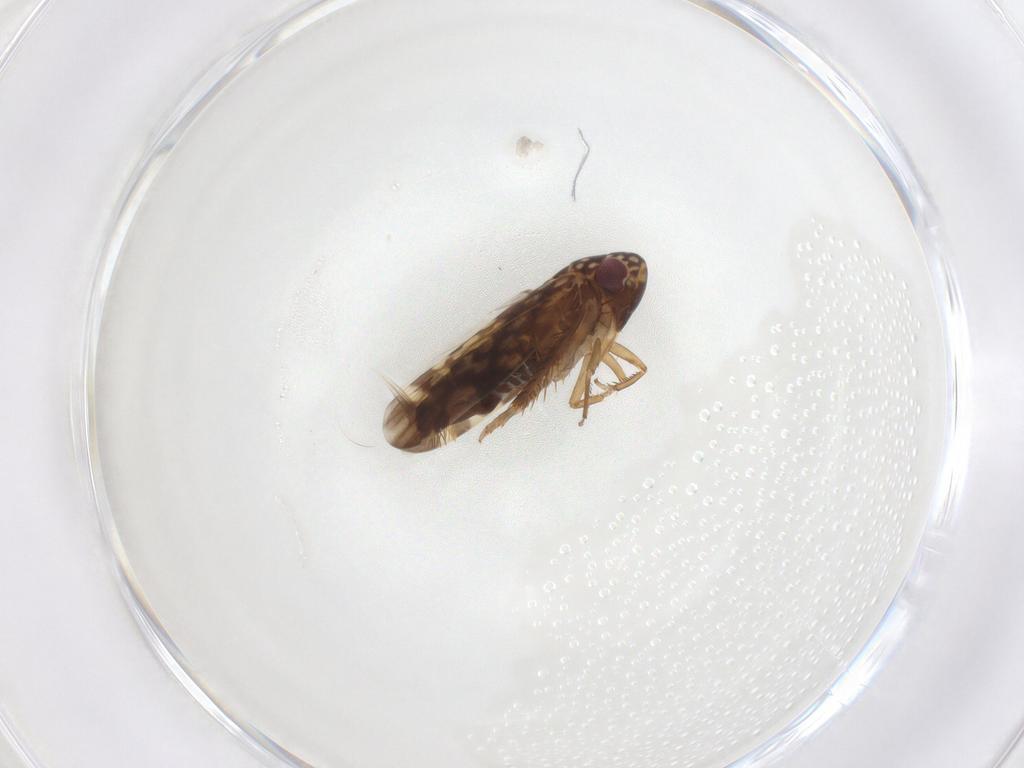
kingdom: Animalia
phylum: Arthropoda
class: Insecta
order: Hemiptera
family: Cicadellidae
